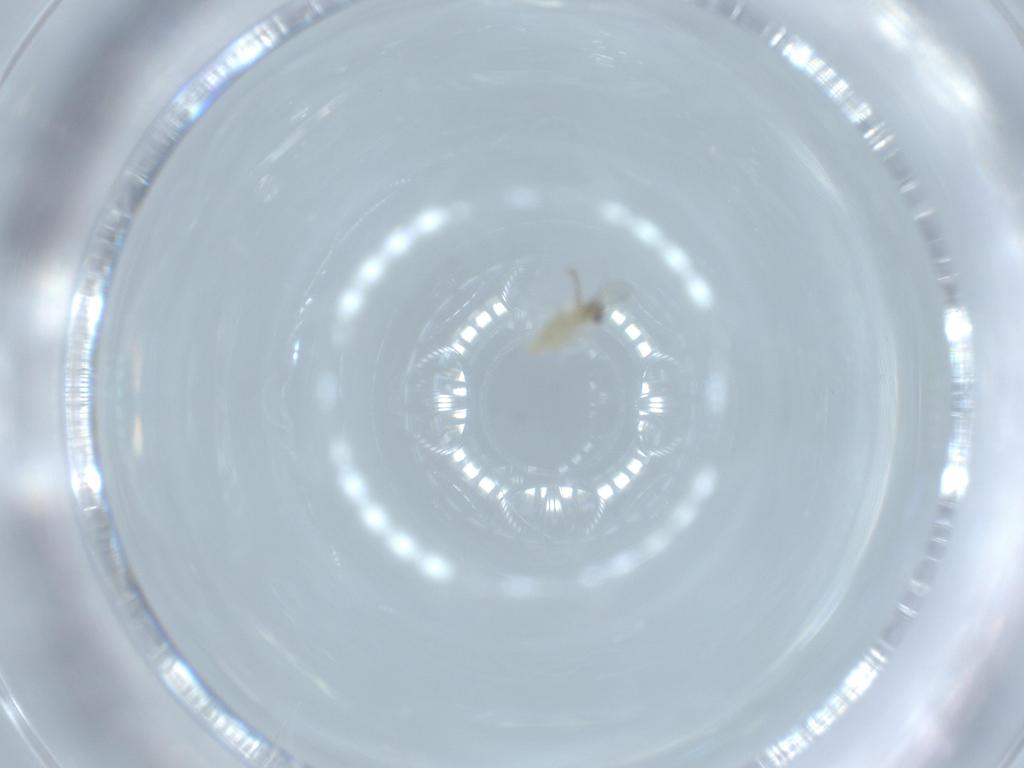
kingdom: Animalia
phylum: Arthropoda
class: Insecta
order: Diptera
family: Cecidomyiidae
